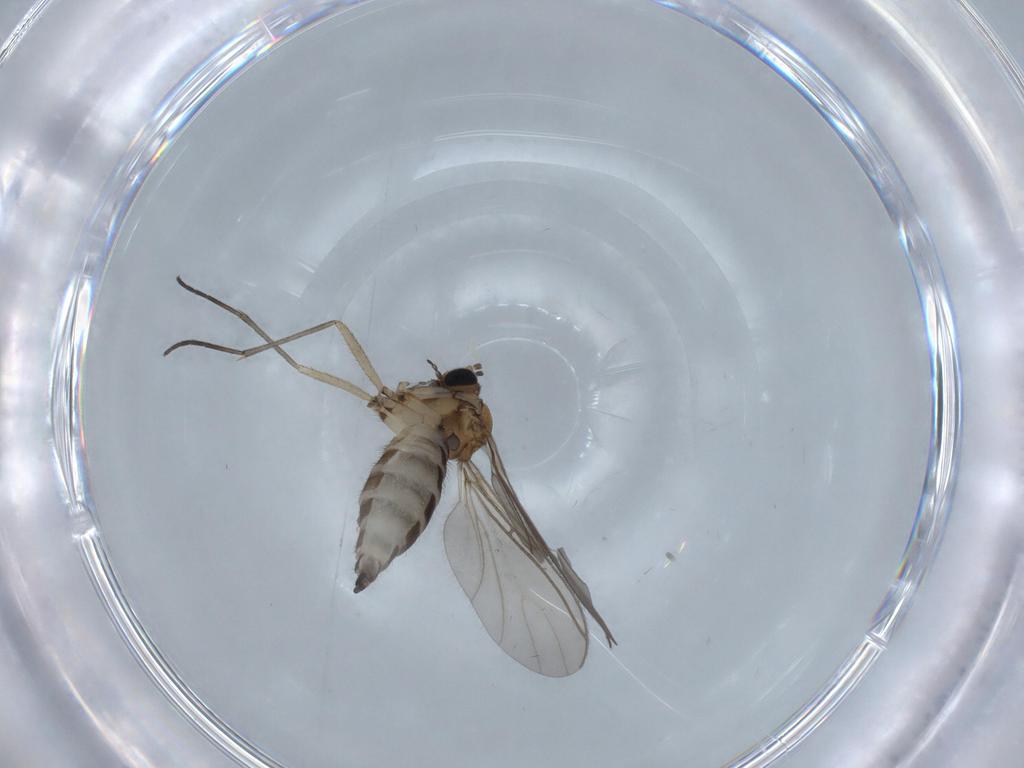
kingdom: Animalia
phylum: Arthropoda
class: Insecta
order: Diptera
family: Sciaridae
